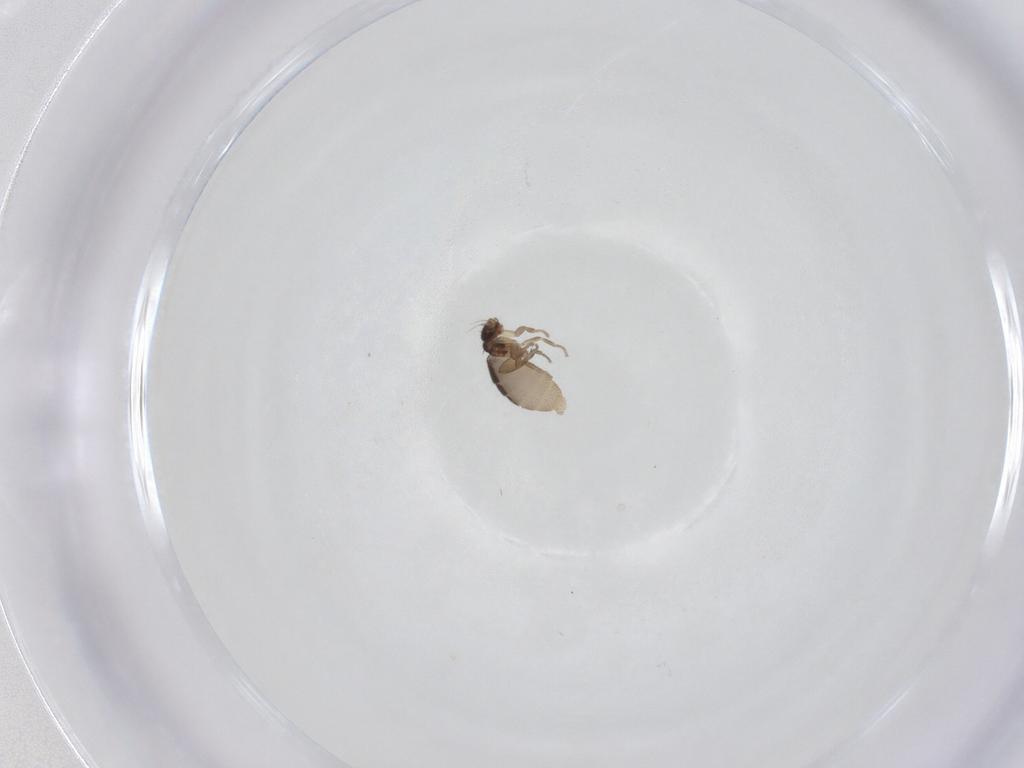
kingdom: Animalia
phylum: Arthropoda
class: Insecta
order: Diptera
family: Phoridae
